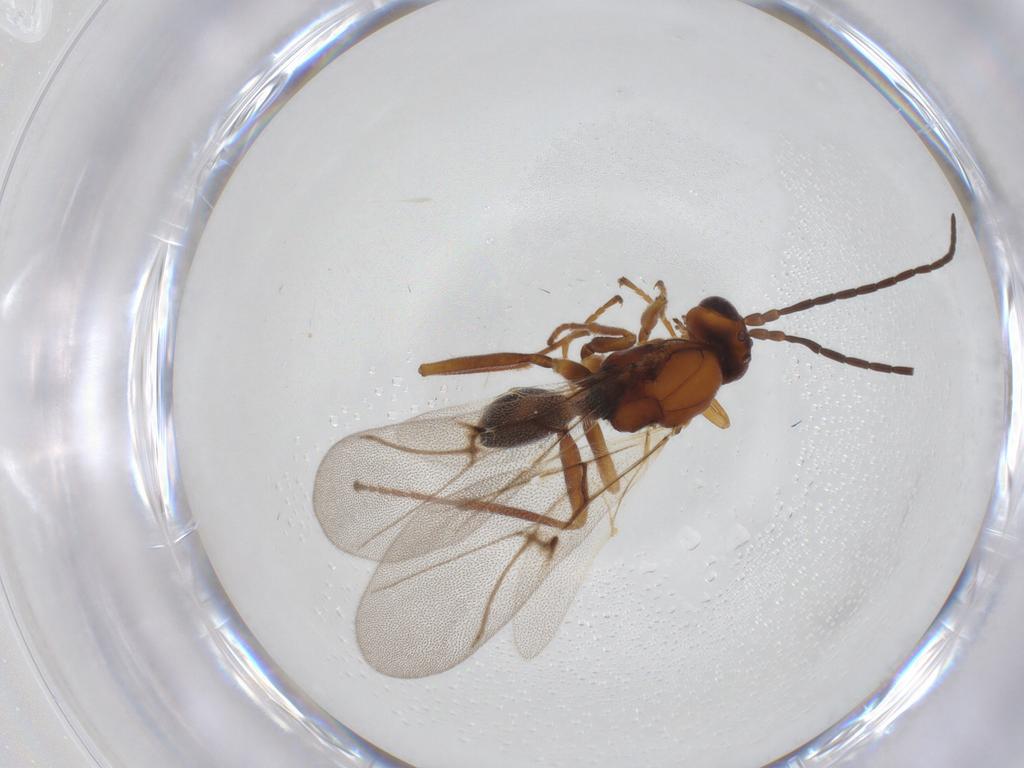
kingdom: Animalia
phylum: Arthropoda
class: Insecta
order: Hymenoptera
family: Cynipidae
